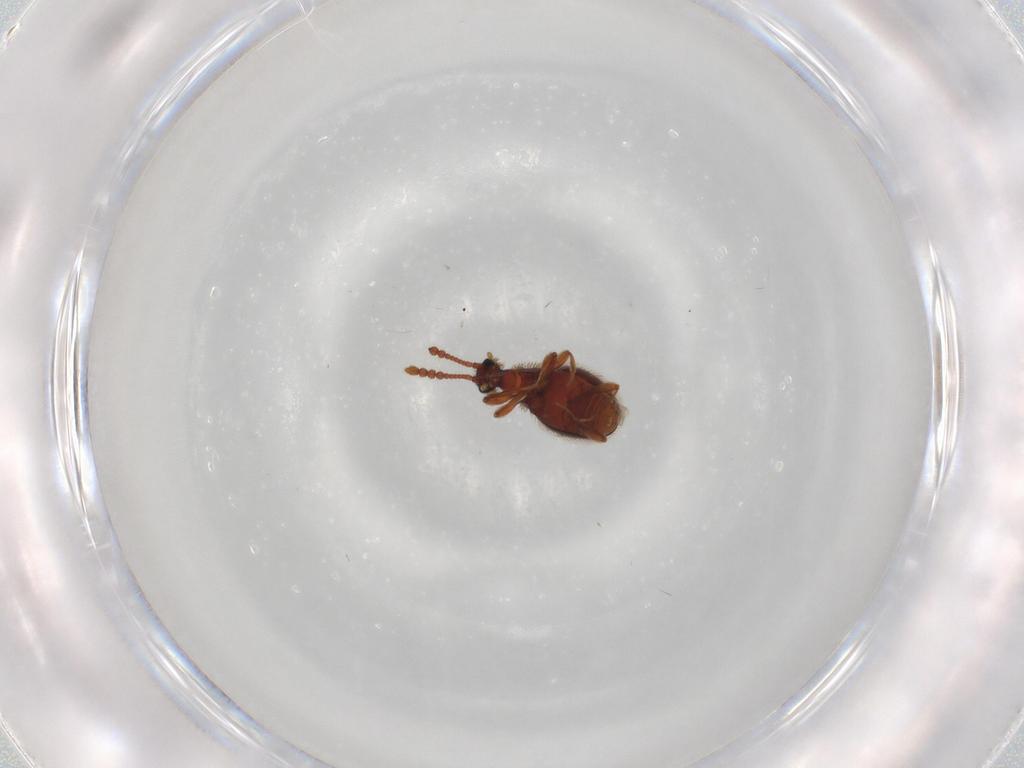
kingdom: Animalia
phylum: Arthropoda
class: Insecta
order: Coleoptera
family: Staphylinidae
